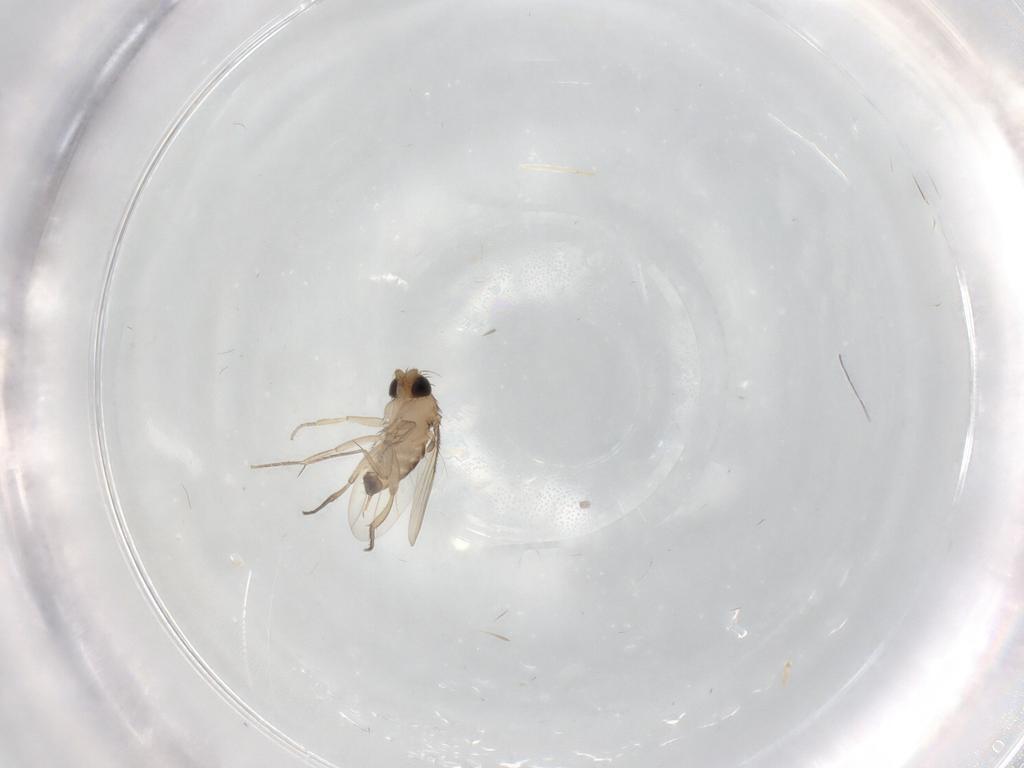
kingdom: Animalia
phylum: Arthropoda
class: Insecta
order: Diptera
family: Phoridae
